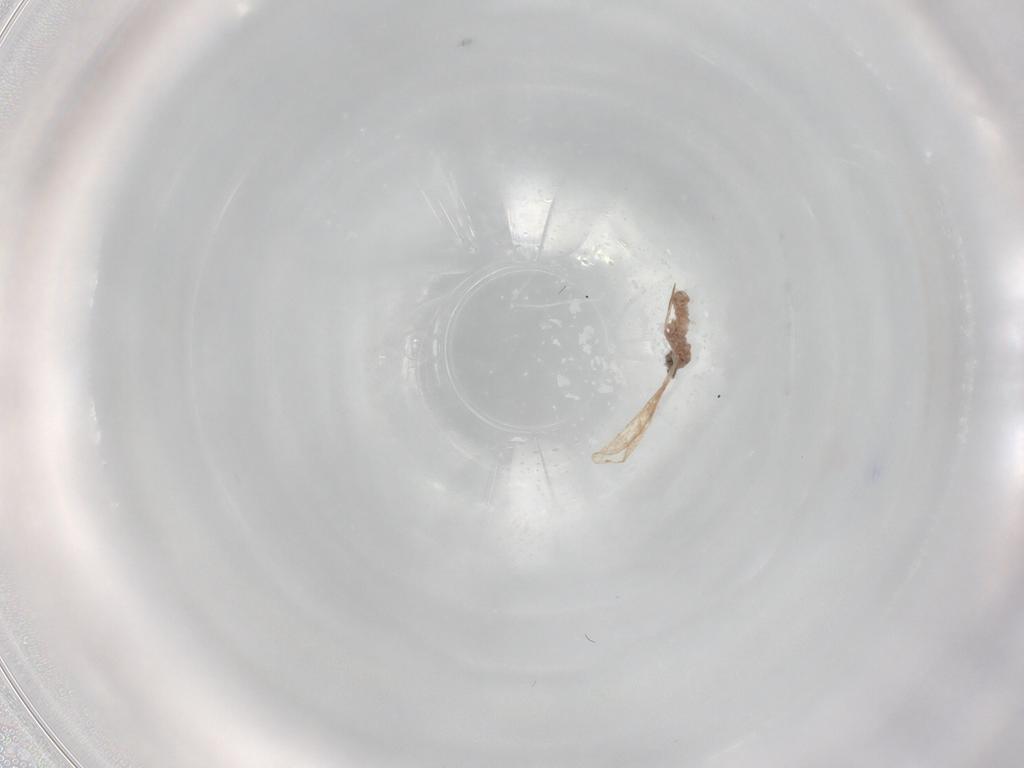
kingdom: Animalia
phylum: Arthropoda
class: Insecta
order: Diptera
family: Cecidomyiidae
